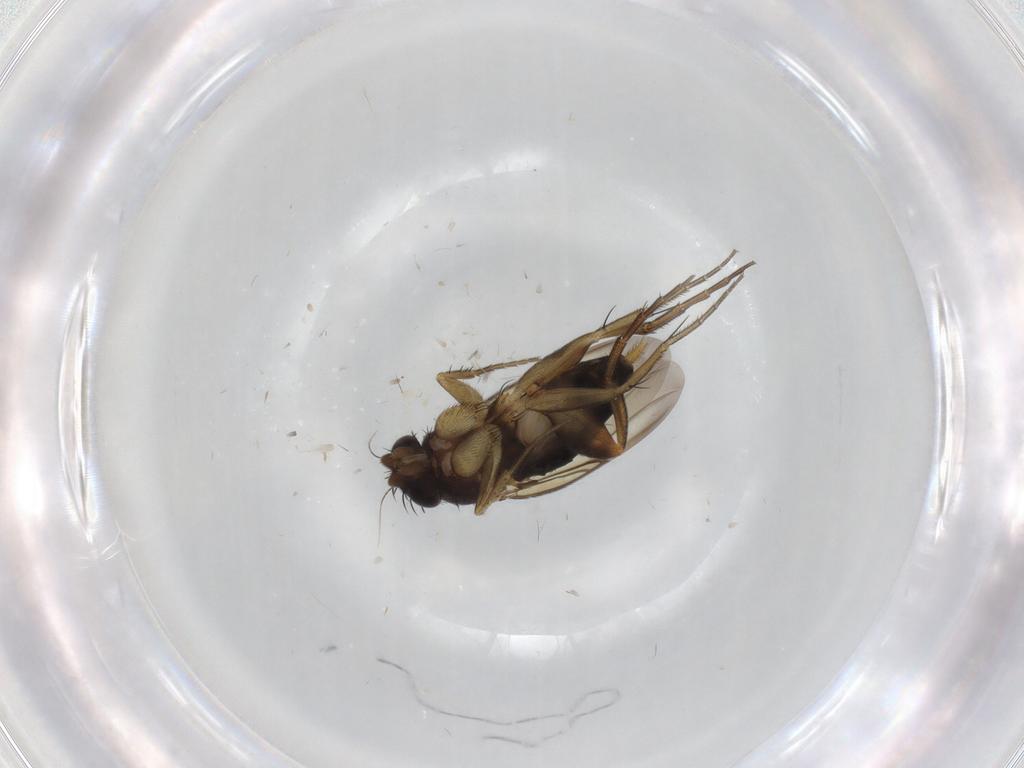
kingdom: Animalia
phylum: Arthropoda
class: Insecta
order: Diptera
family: Phoridae
